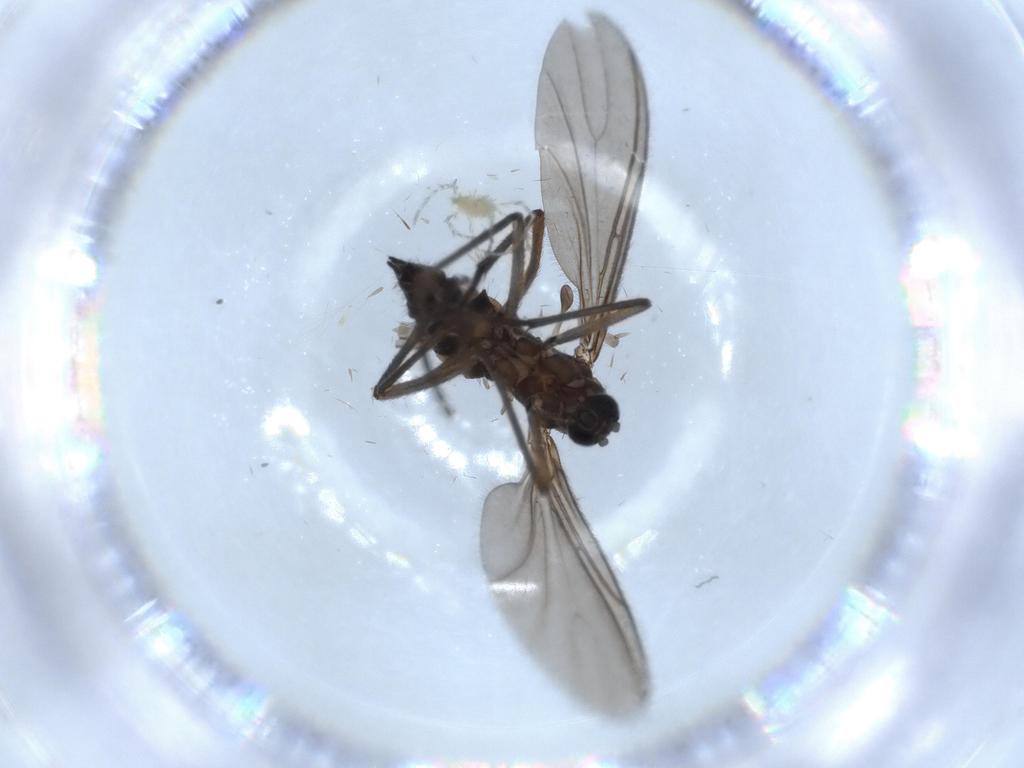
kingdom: Animalia
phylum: Arthropoda
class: Insecta
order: Diptera
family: Sciaridae
